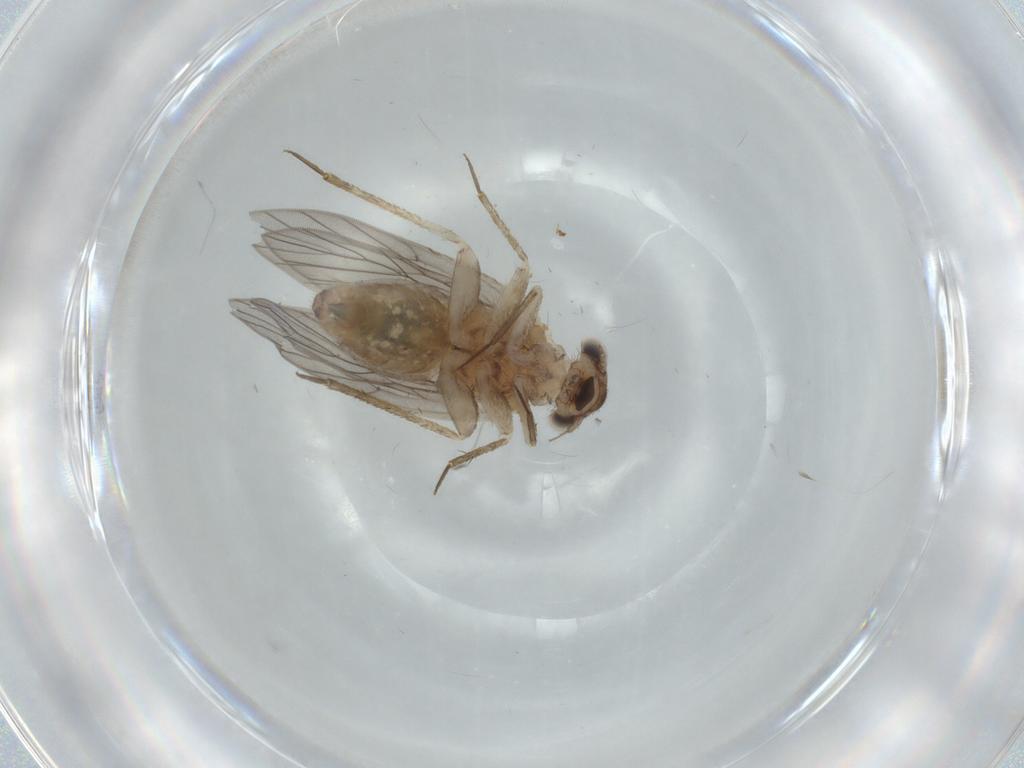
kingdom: Animalia
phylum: Arthropoda
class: Insecta
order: Psocodea
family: Lepidopsocidae
